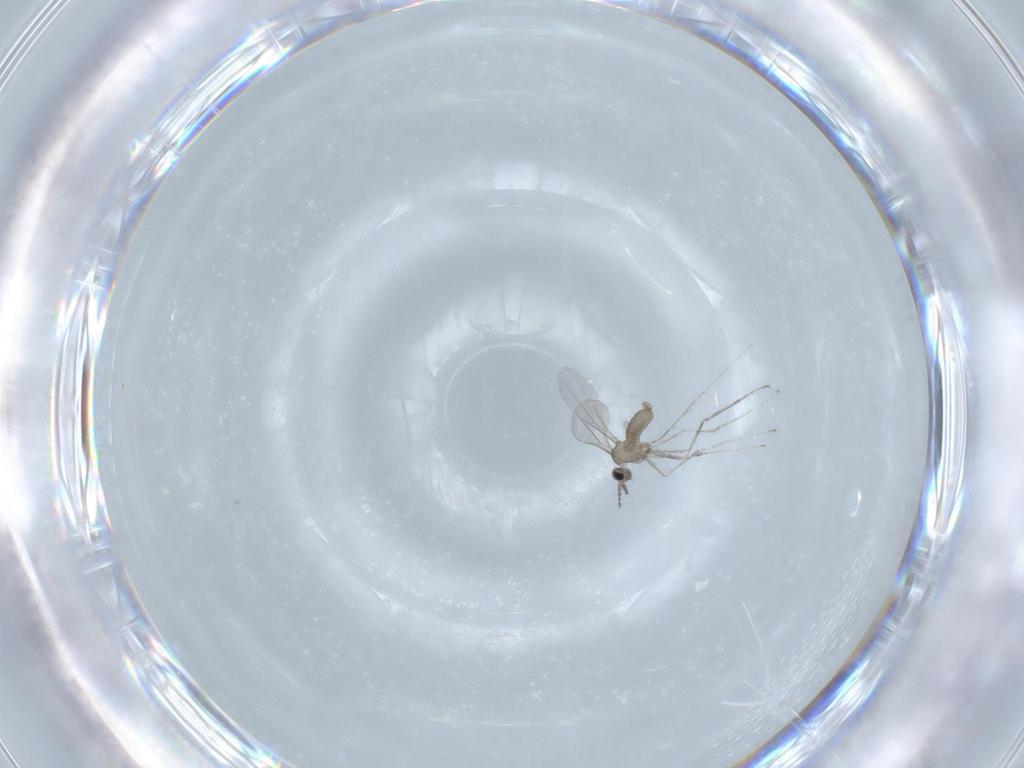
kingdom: Animalia
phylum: Arthropoda
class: Insecta
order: Diptera
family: Cecidomyiidae
